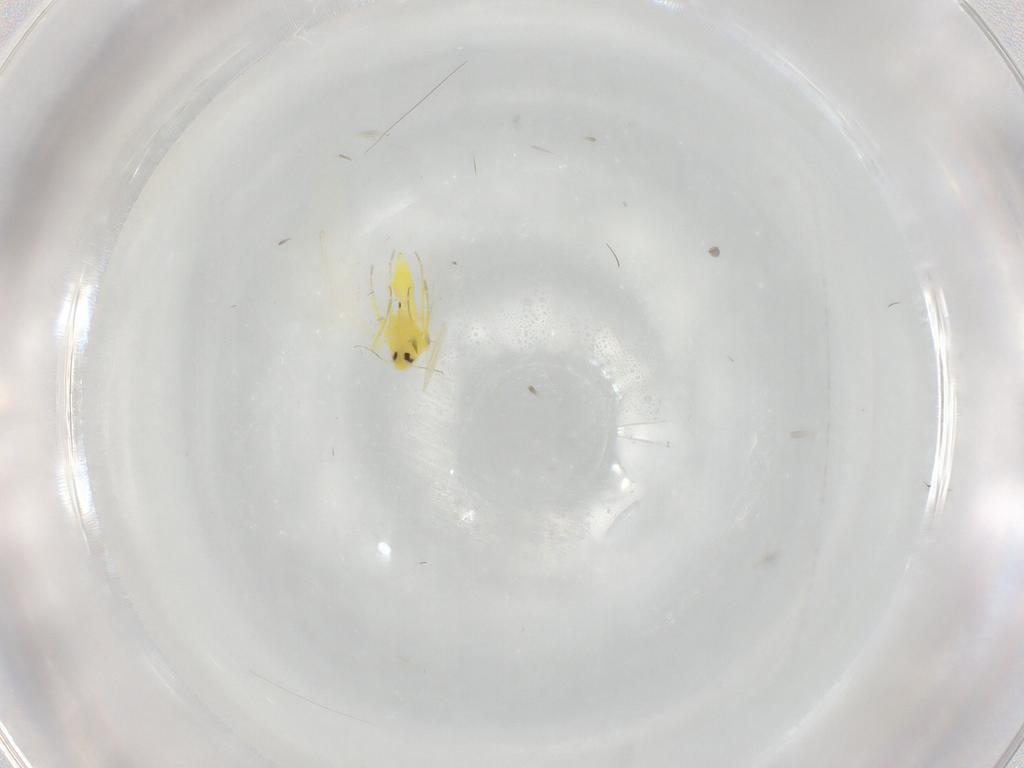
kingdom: Animalia
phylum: Arthropoda
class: Insecta
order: Hemiptera
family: Aleyrodidae
